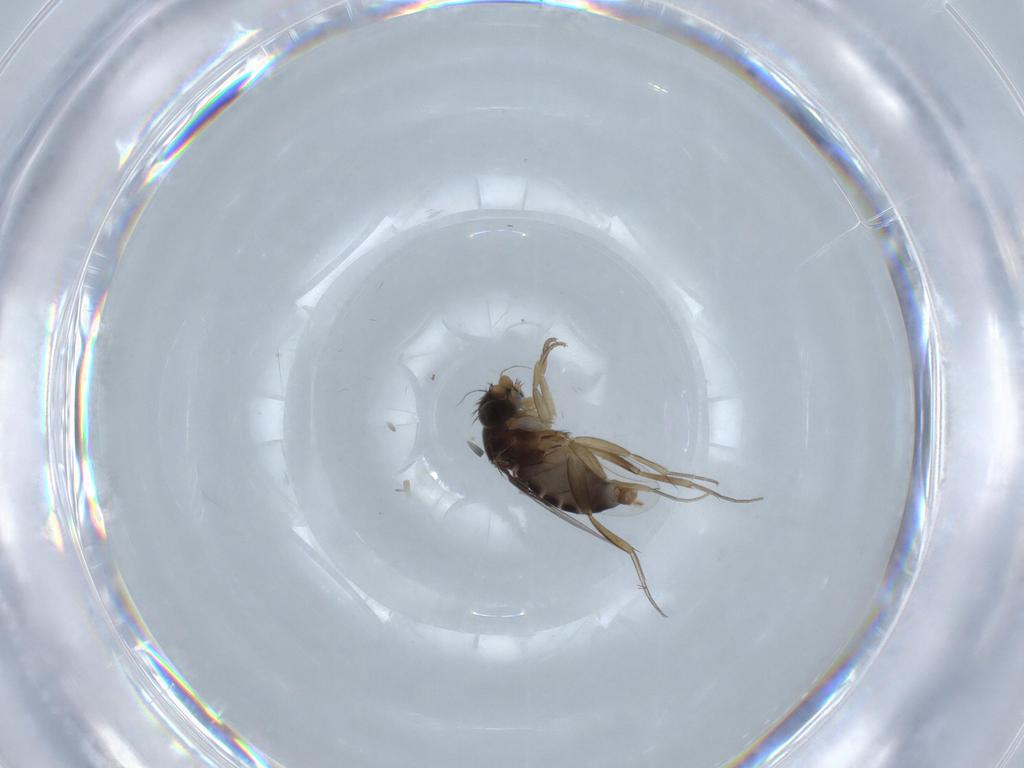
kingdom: Animalia
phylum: Arthropoda
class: Insecta
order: Diptera
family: Phoridae
